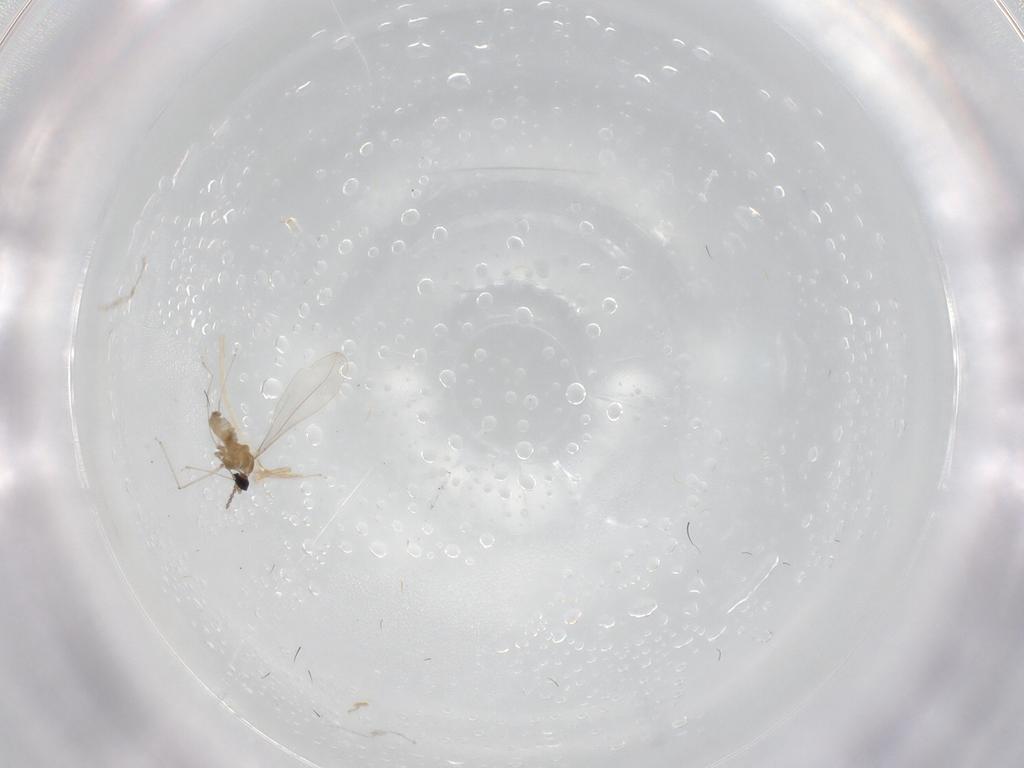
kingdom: Animalia
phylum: Arthropoda
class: Insecta
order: Diptera
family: Cecidomyiidae
